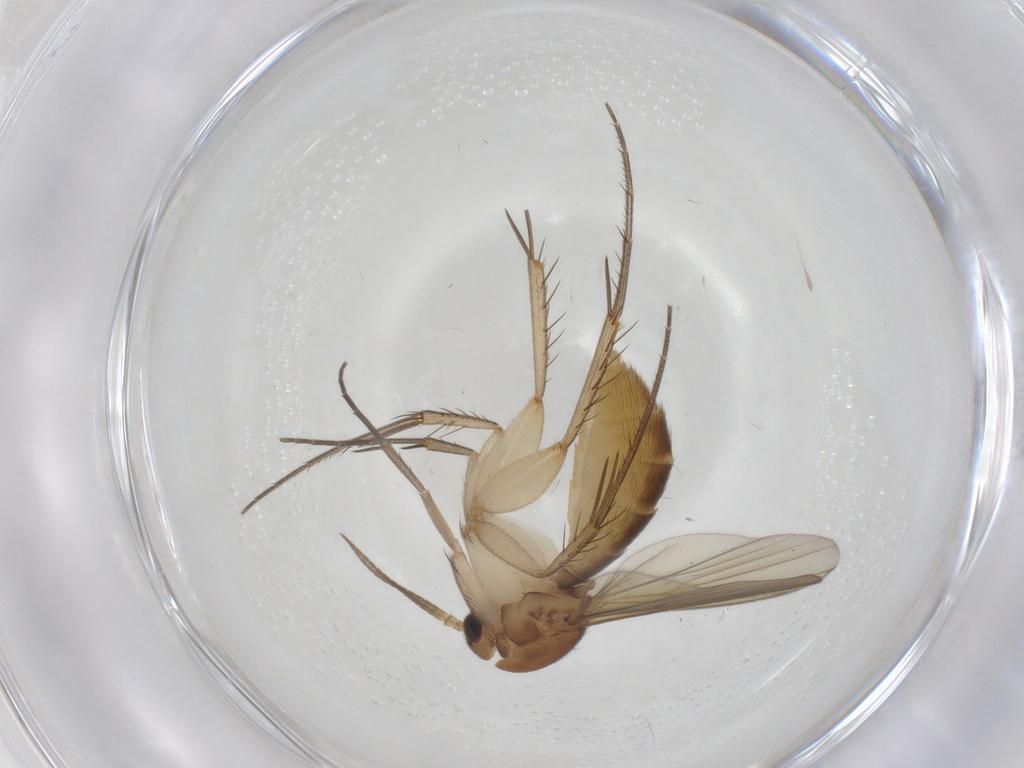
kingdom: Animalia
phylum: Arthropoda
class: Insecta
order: Diptera
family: Mycetophilidae
